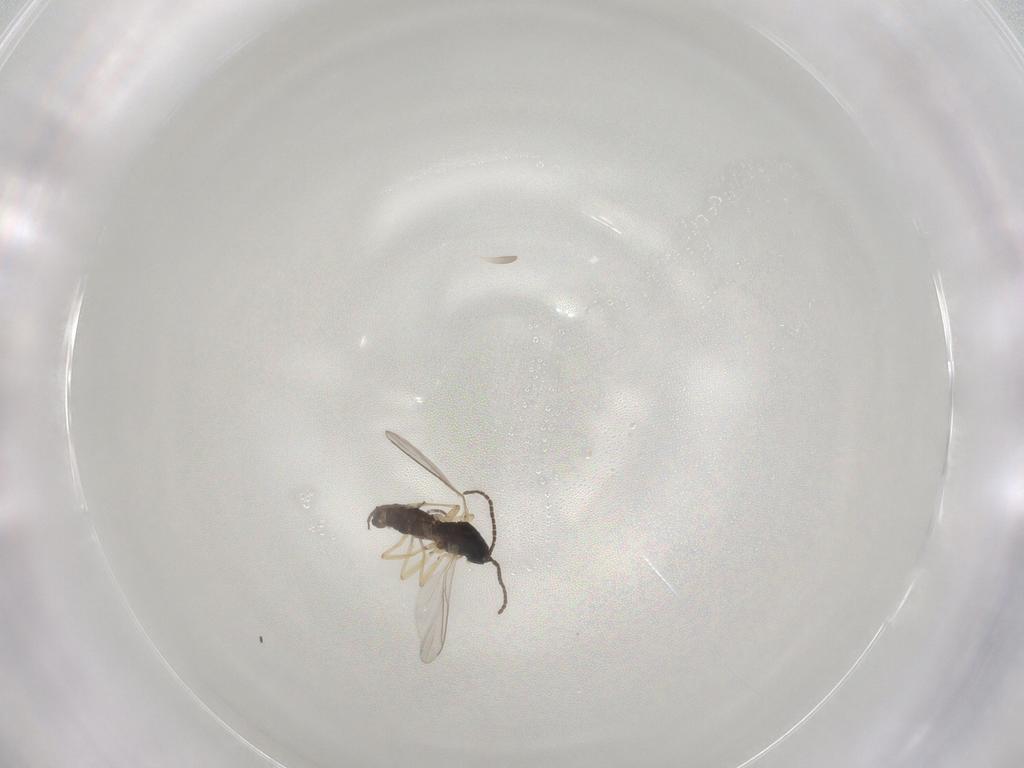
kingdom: Animalia
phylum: Arthropoda
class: Insecta
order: Diptera
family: Sciaridae
